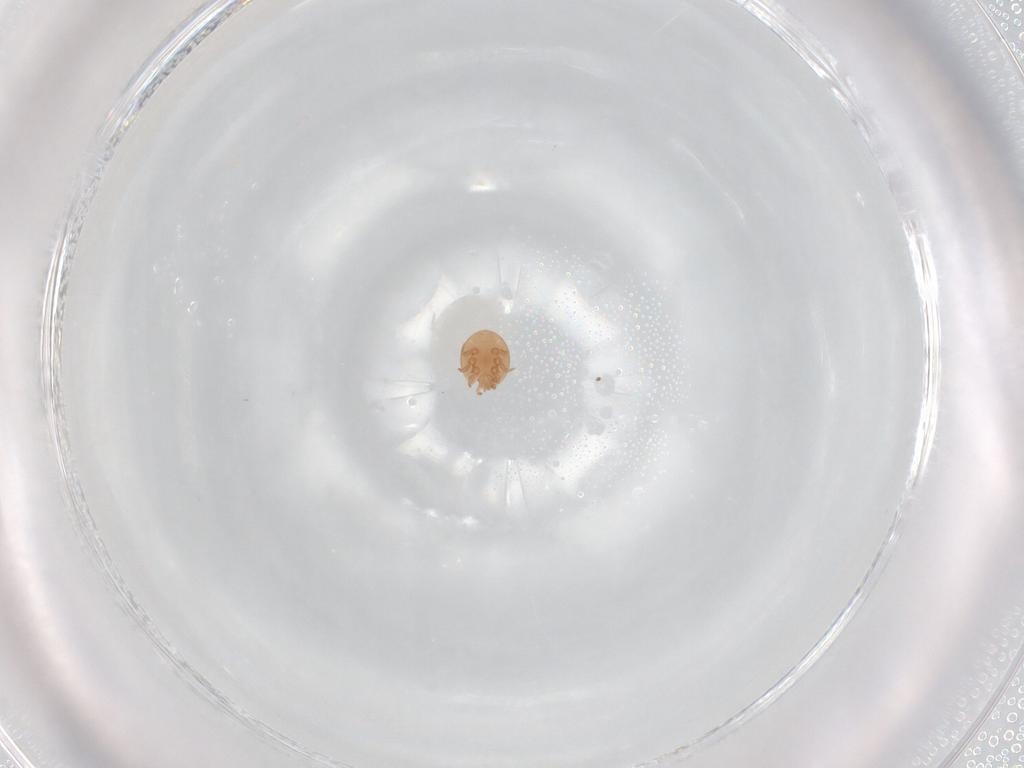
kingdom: Animalia
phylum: Arthropoda
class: Arachnida
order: Mesostigmata
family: Trematuridae
